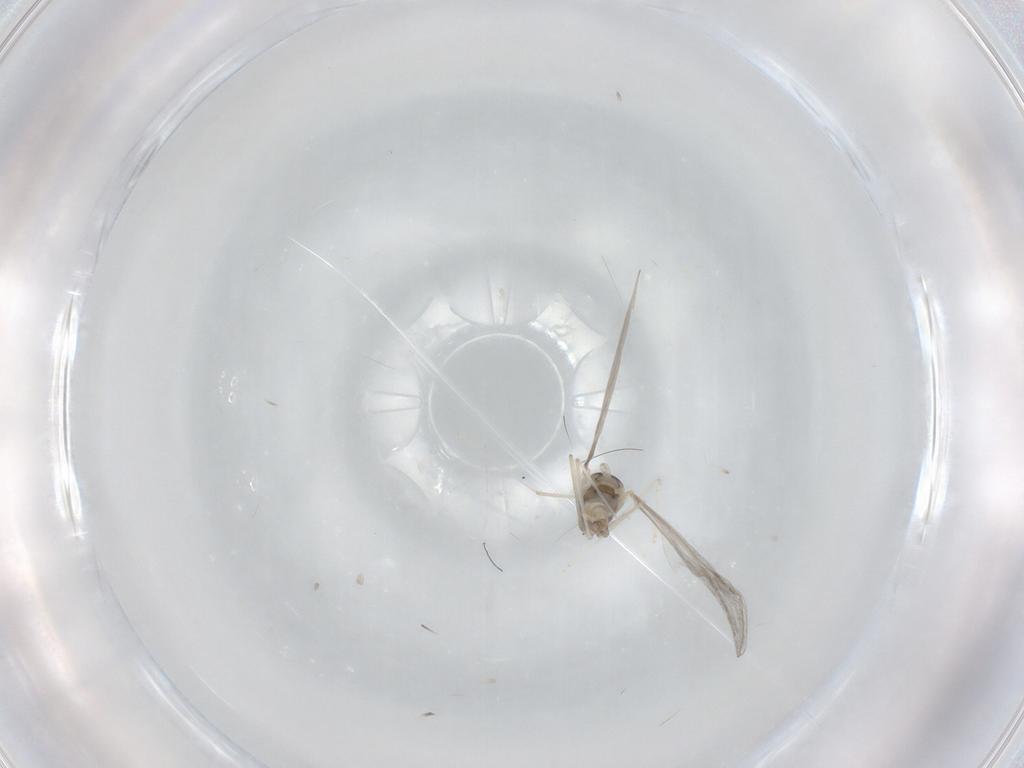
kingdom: Animalia
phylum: Arthropoda
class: Insecta
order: Diptera
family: Cecidomyiidae
